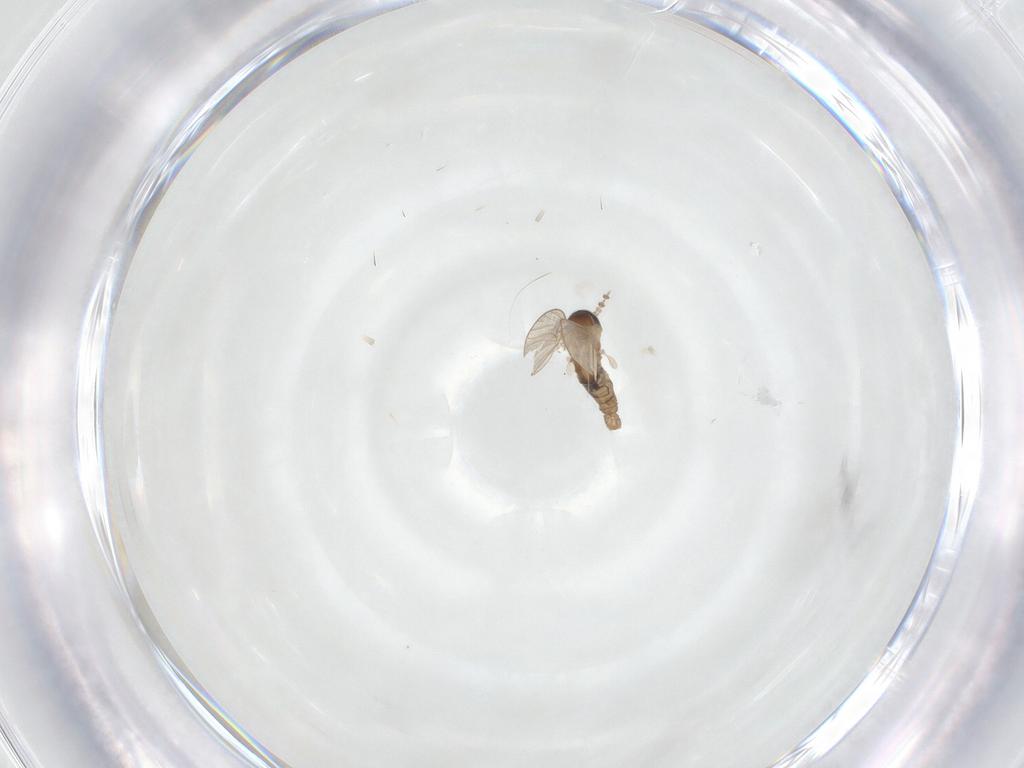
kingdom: Animalia
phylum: Arthropoda
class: Insecta
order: Diptera
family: Psychodidae
